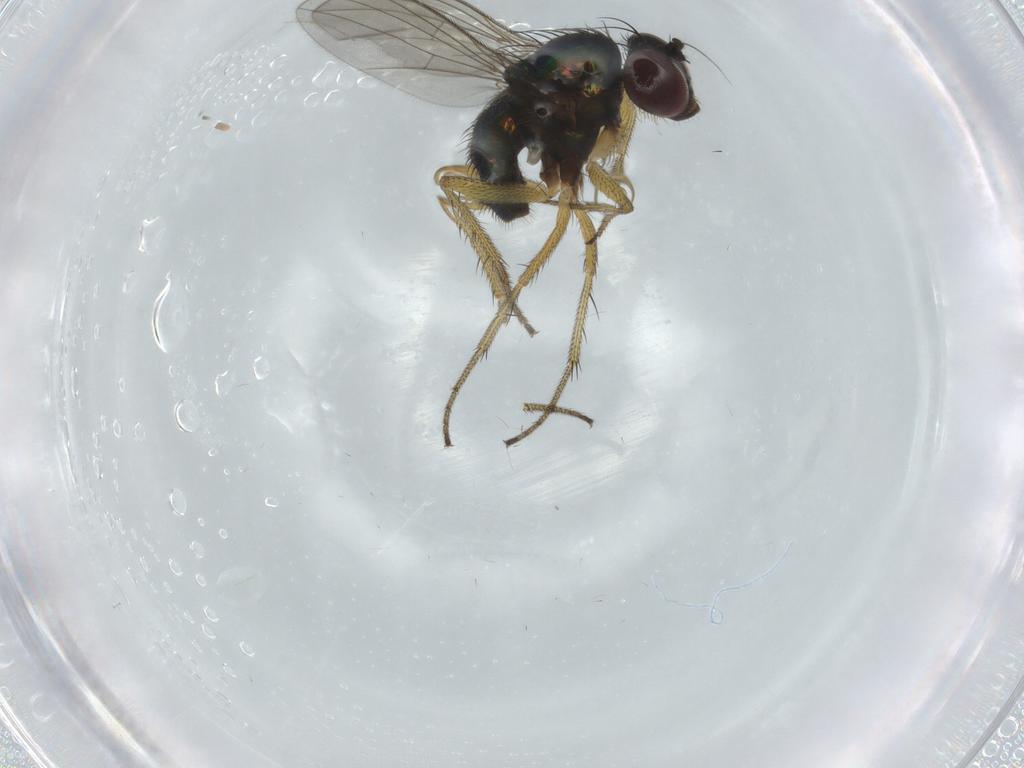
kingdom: Animalia
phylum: Arthropoda
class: Insecta
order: Diptera
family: Dolichopodidae
